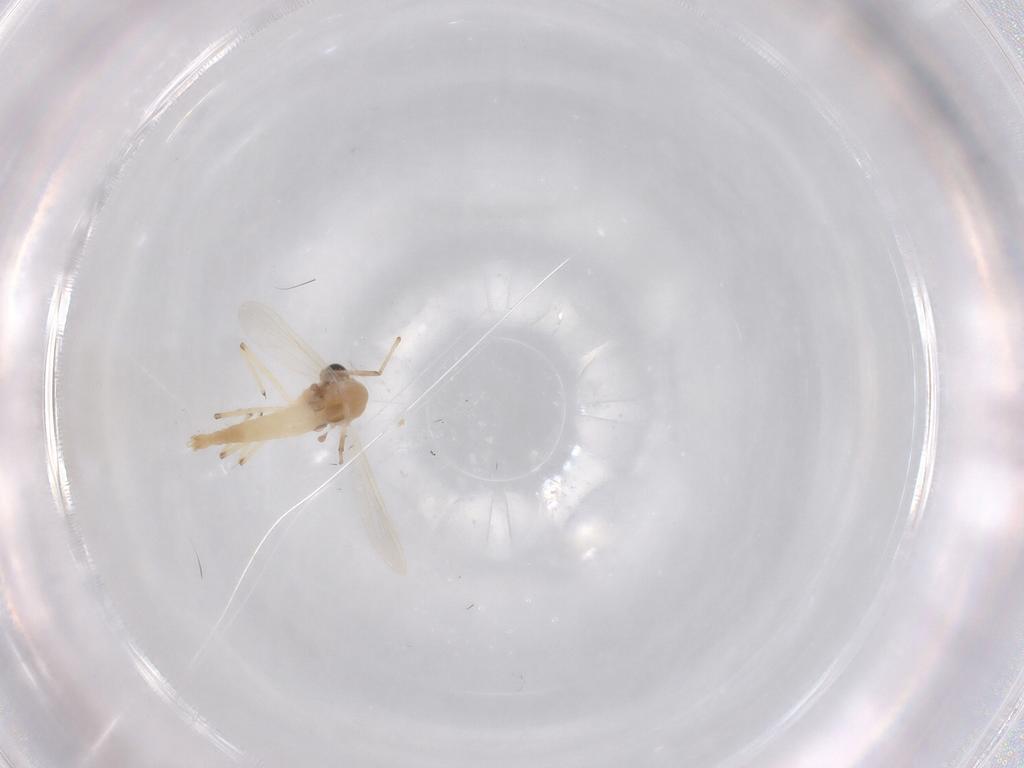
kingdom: Animalia
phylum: Arthropoda
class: Insecta
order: Diptera
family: Chironomidae
